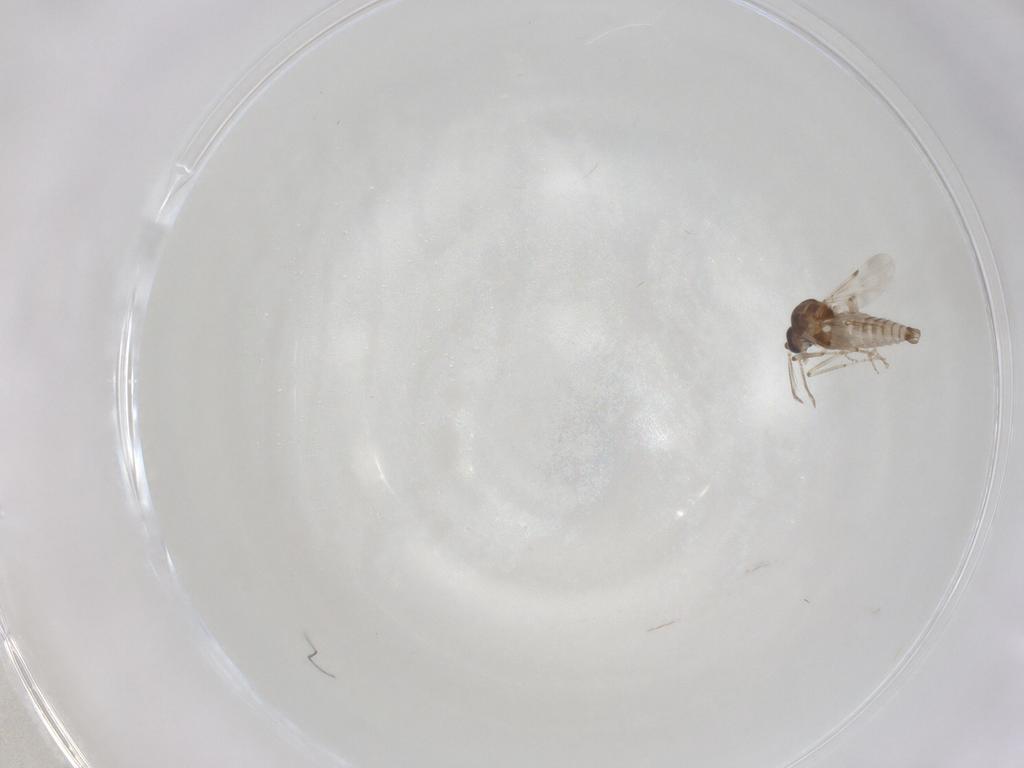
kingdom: Animalia
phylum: Arthropoda
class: Insecta
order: Diptera
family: Ceratopogonidae
